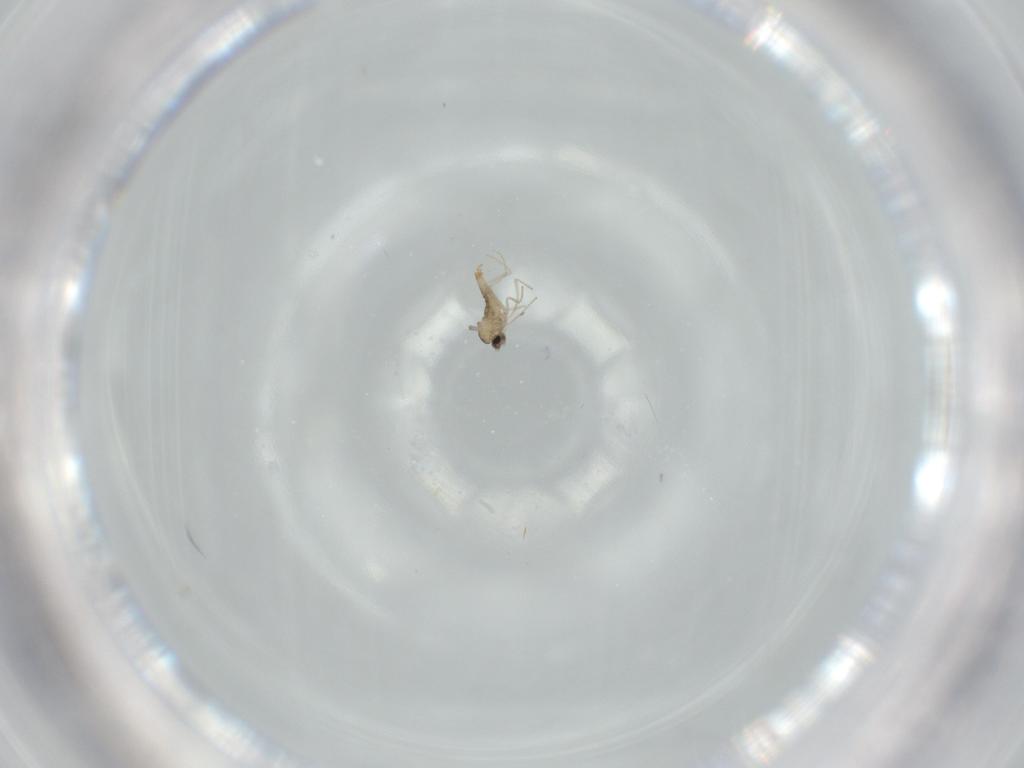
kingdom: Animalia
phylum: Arthropoda
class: Insecta
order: Diptera
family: Cecidomyiidae
